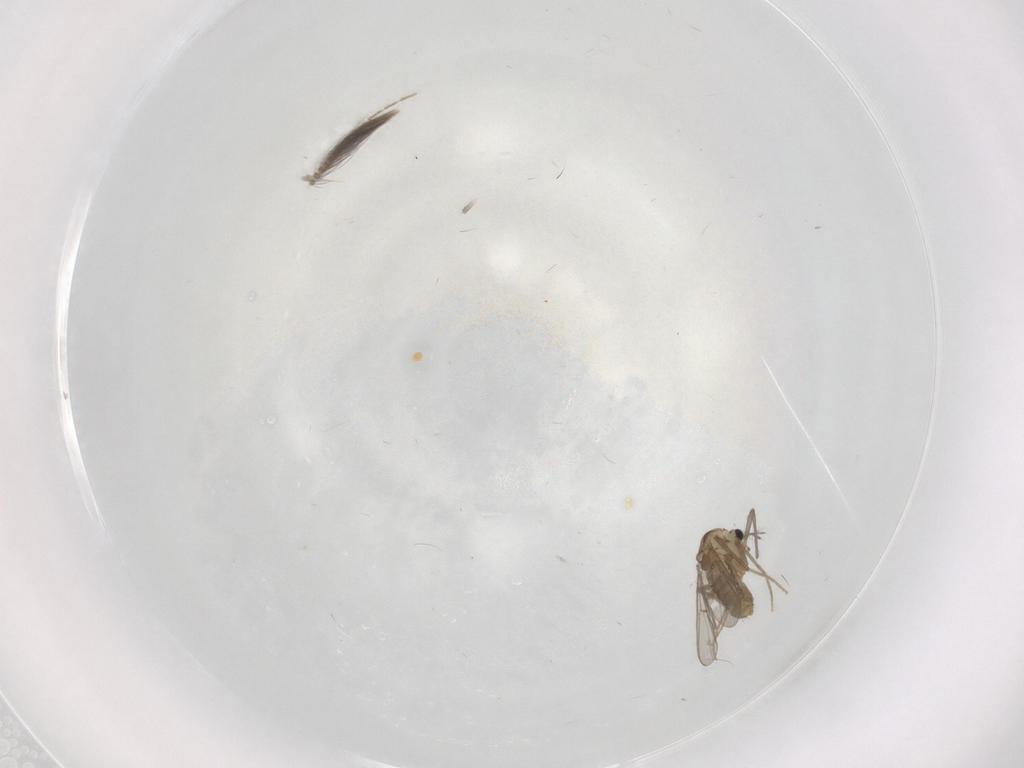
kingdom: Animalia
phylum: Arthropoda
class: Insecta
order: Diptera
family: Chironomidae
